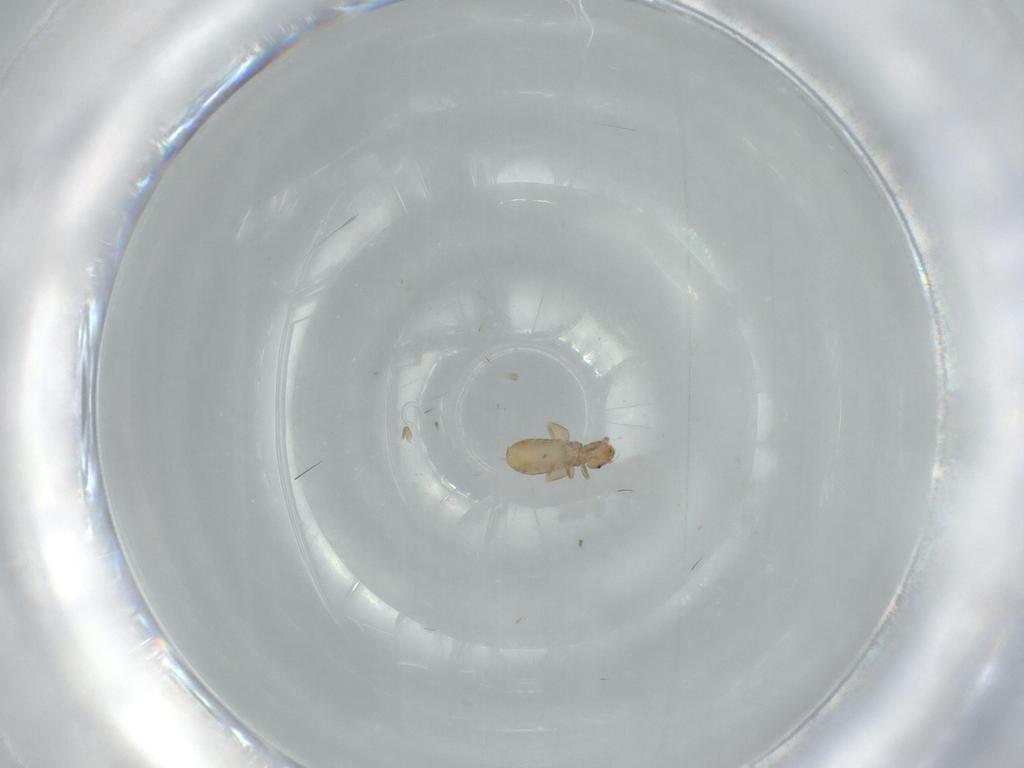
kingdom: Animalia
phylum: Arthropoda
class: Insecta
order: Psocodea
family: Liposcelididae
